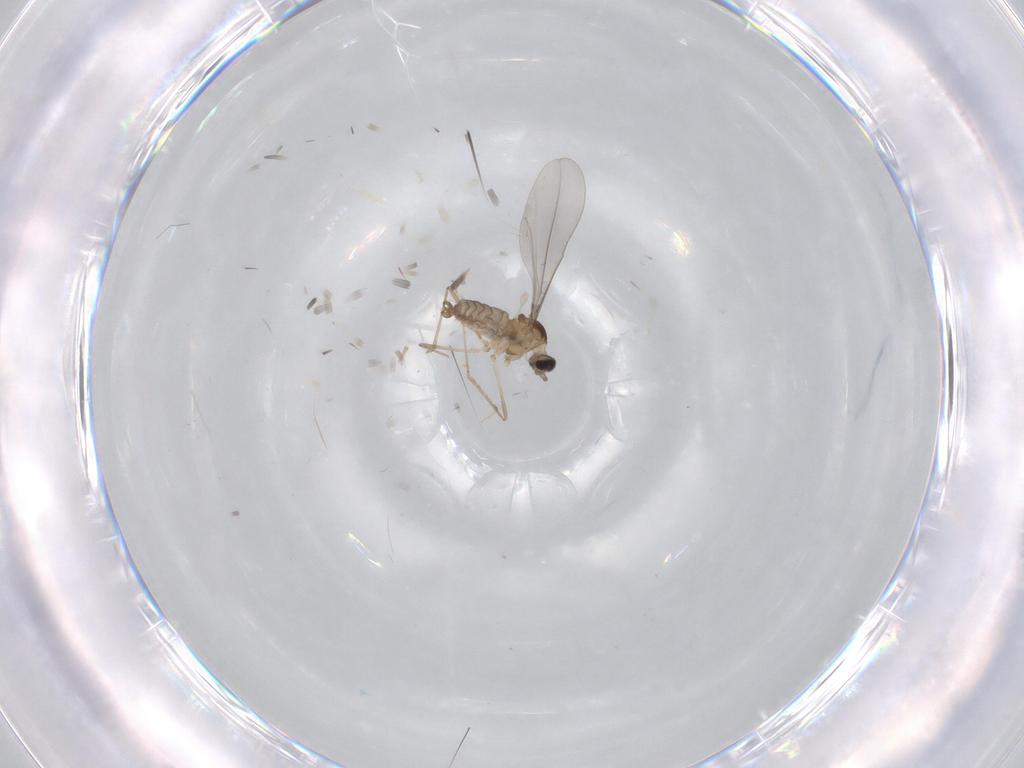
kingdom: Animalia
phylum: Arthropoda
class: Insecta
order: Diptera
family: Cecidomyiidae
